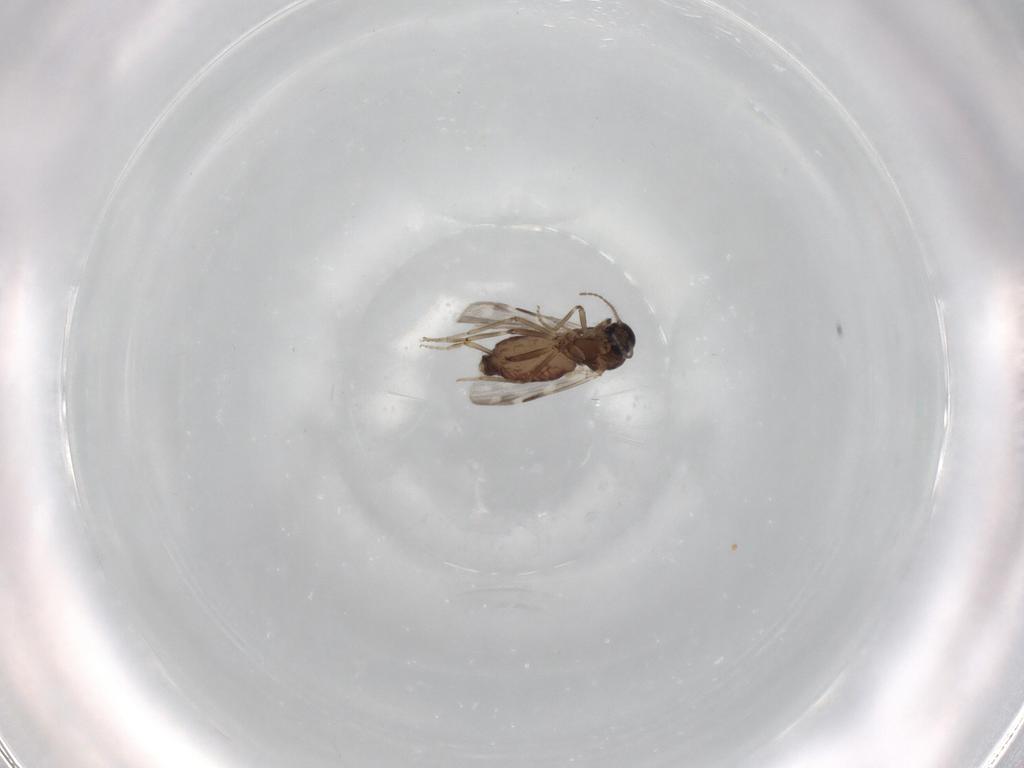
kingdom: Animalia
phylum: Arthropoda
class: Insecta
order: Diptera
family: Ceratopogonidae
